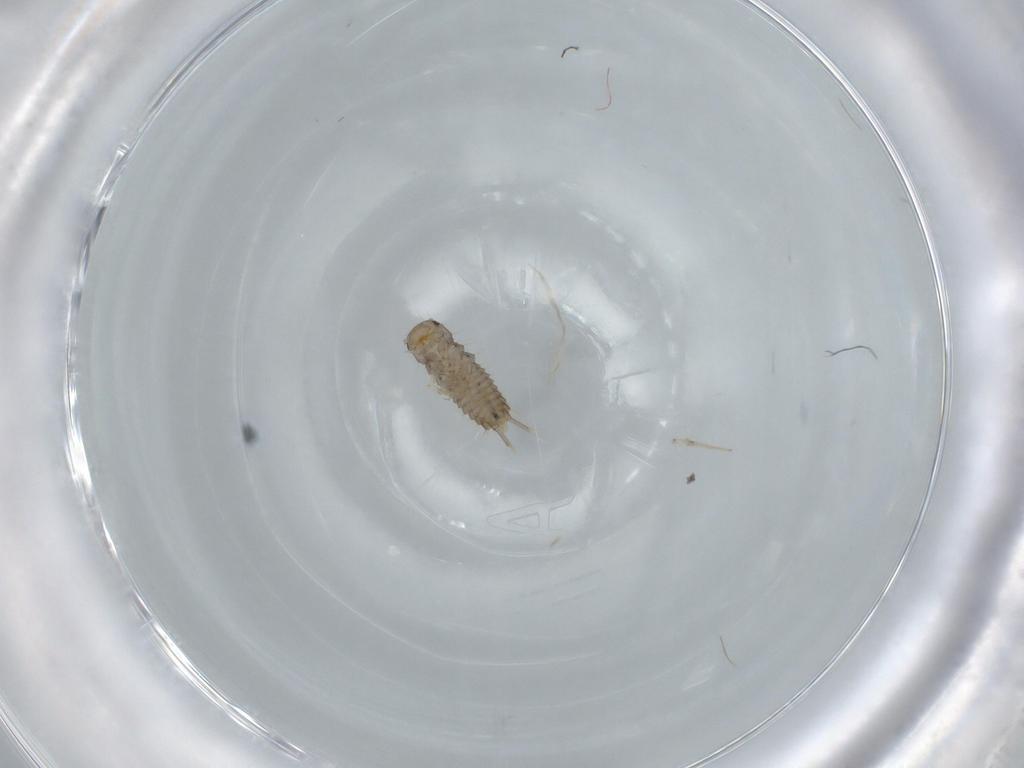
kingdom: Animalia
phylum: Arthropoda
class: Insecta
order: Coleoptera
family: Staphylinidae
